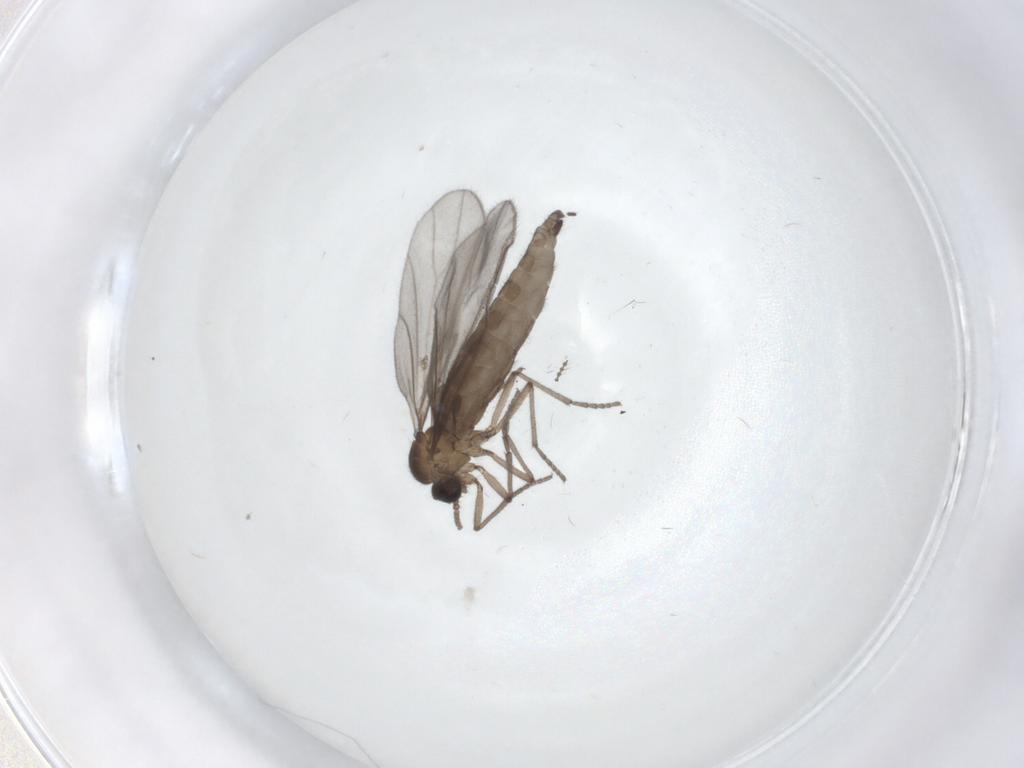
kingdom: Animalia
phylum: Arthropoda
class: Insecta
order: Diptera
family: Sciaridae
